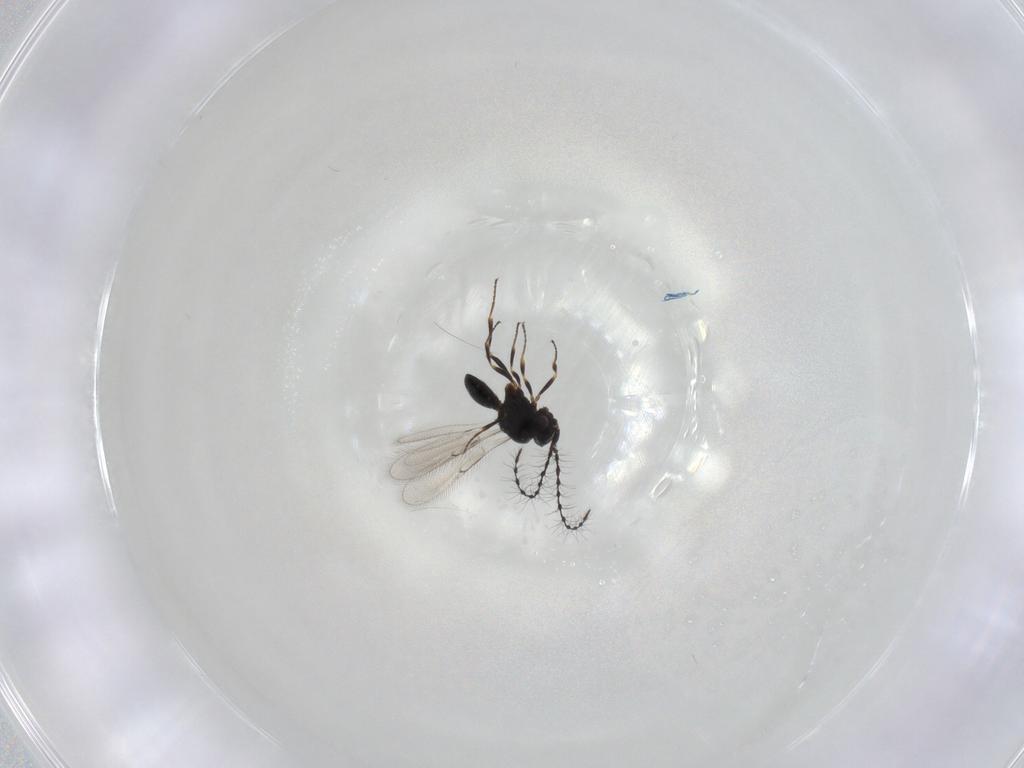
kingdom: Animalia
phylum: Arthropoda
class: Insecta
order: Hymenoptera
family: Scelionidae
